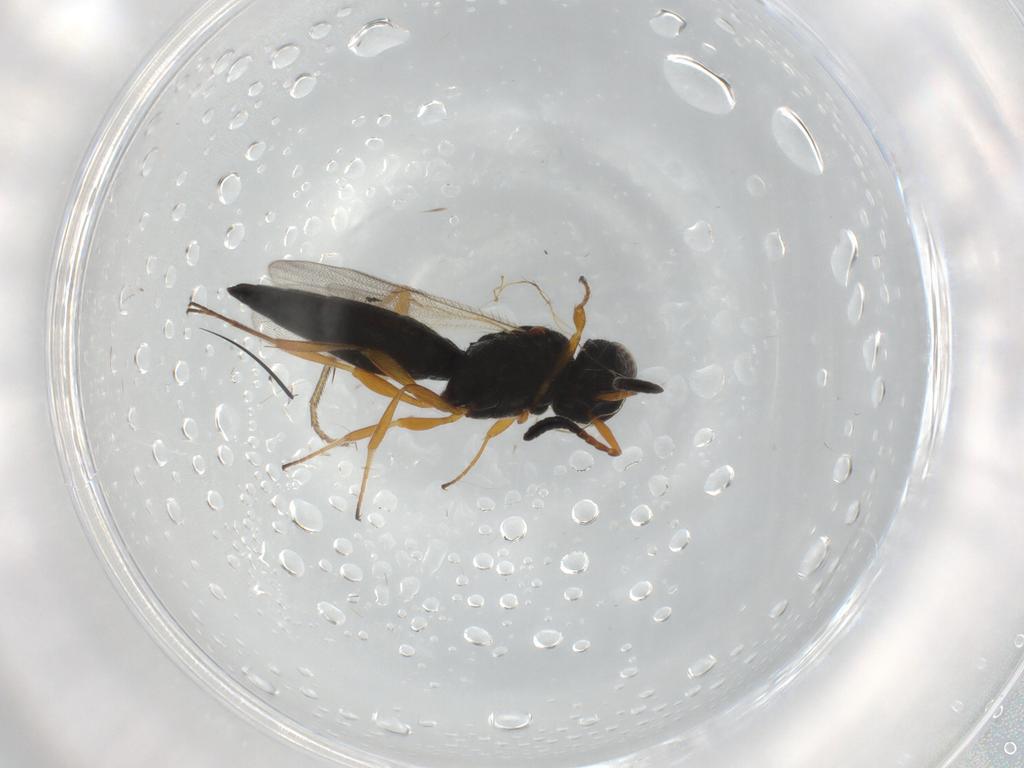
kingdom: Animalia
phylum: Arthropoda
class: Insecta
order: Hymenoptera
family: Scelionidae
